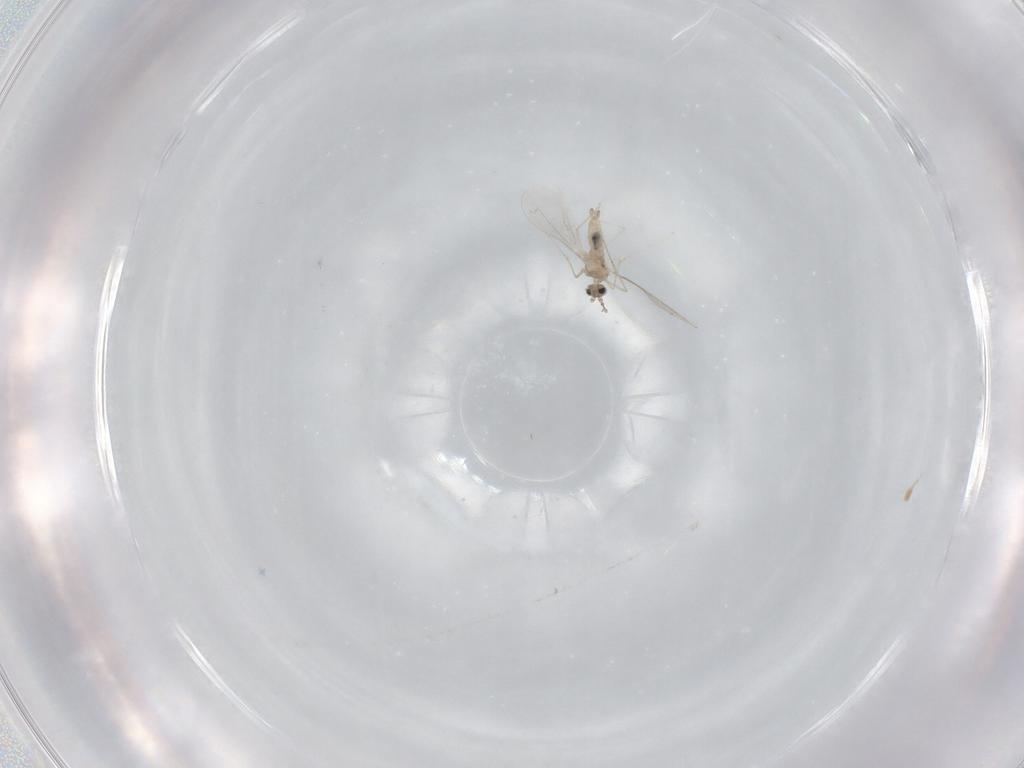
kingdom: Animalia
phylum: Arthropoda
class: Insecta
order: Diptera
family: Cecidomyiidae
